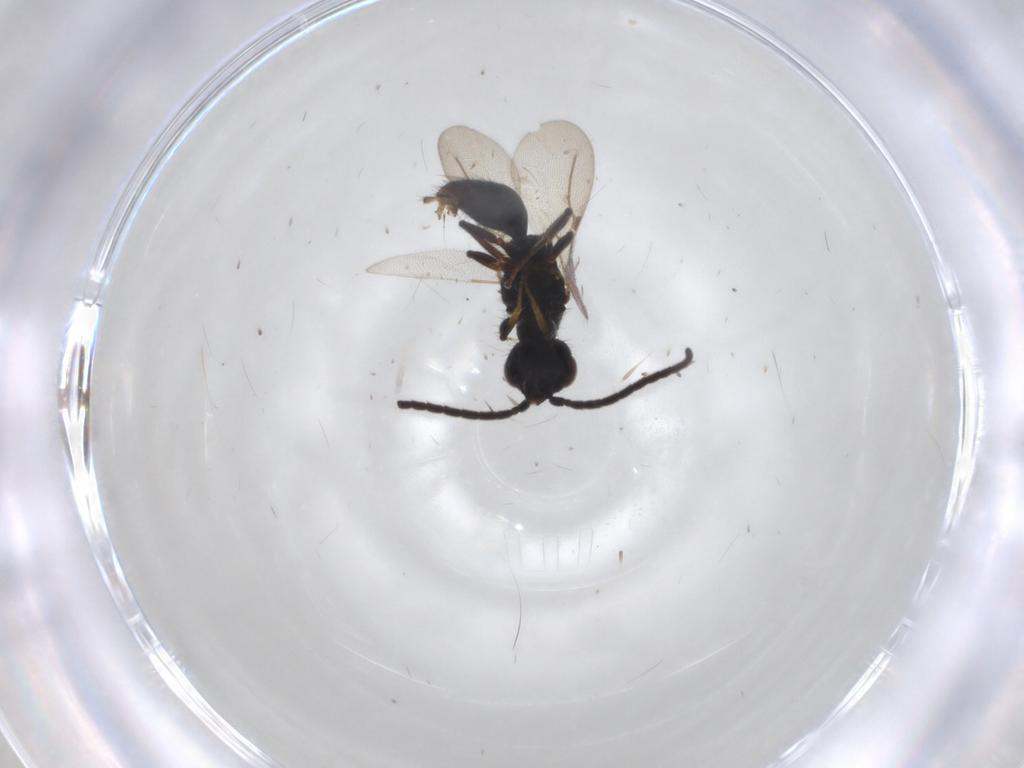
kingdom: Animalia
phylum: Arthropoda
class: Insecta
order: Hymenoptera
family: Bethylidae
